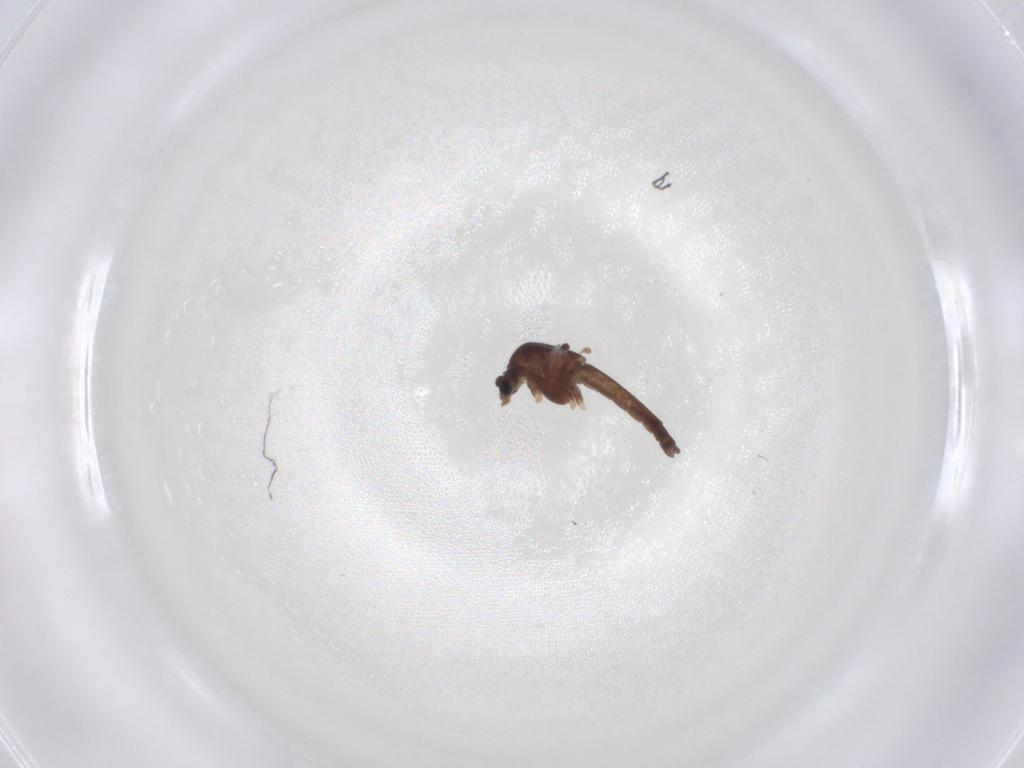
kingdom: Animalia
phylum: Arthropoda
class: Insecta
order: Diptera
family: Chironomidae
